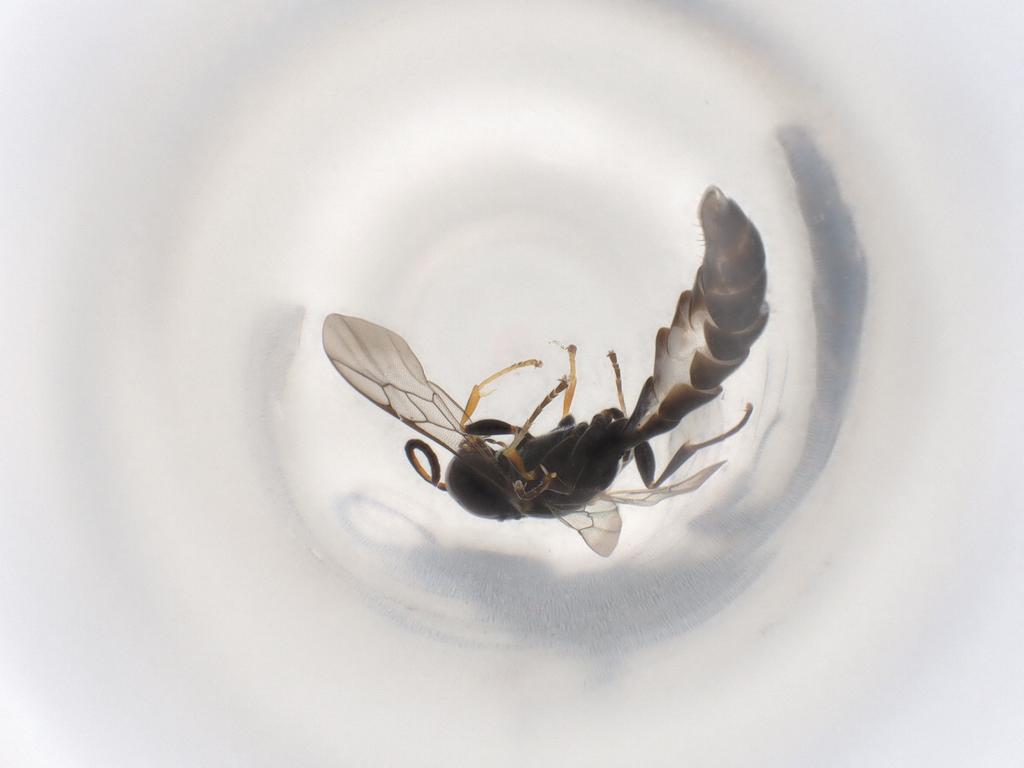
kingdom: Animalia
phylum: Arthropoda
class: Insecta
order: Hymenoptera
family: Crabronidae
